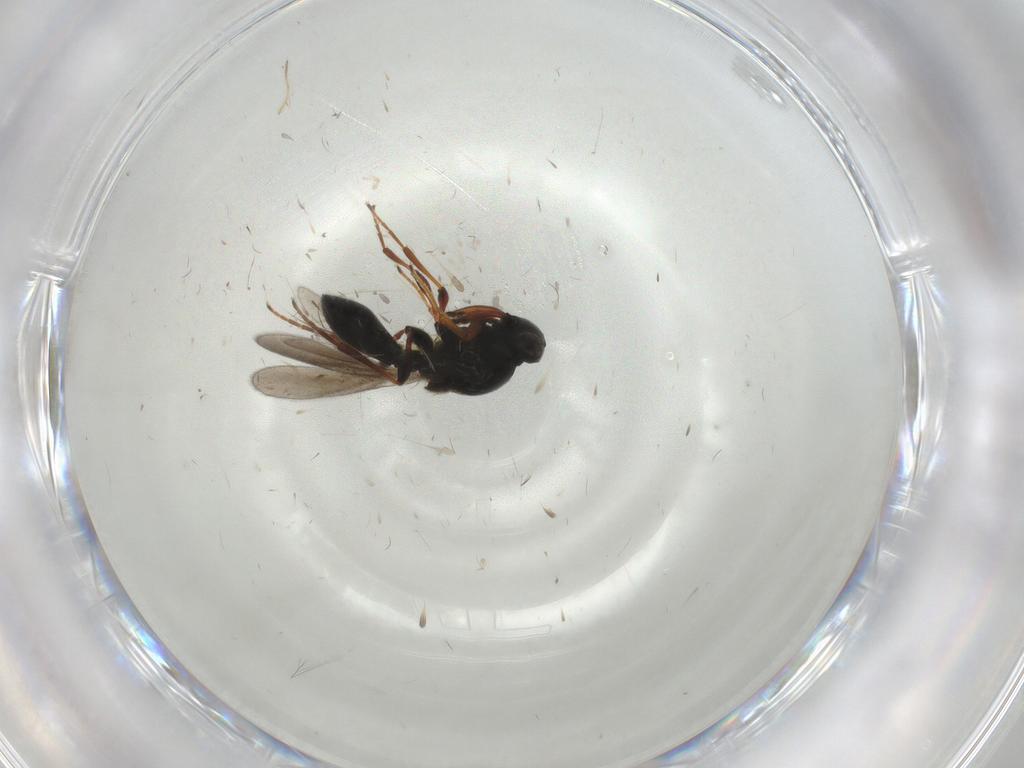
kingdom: Animalia
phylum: Arthropoda
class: Insecta
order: Hymenoptera
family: Platygastridae
